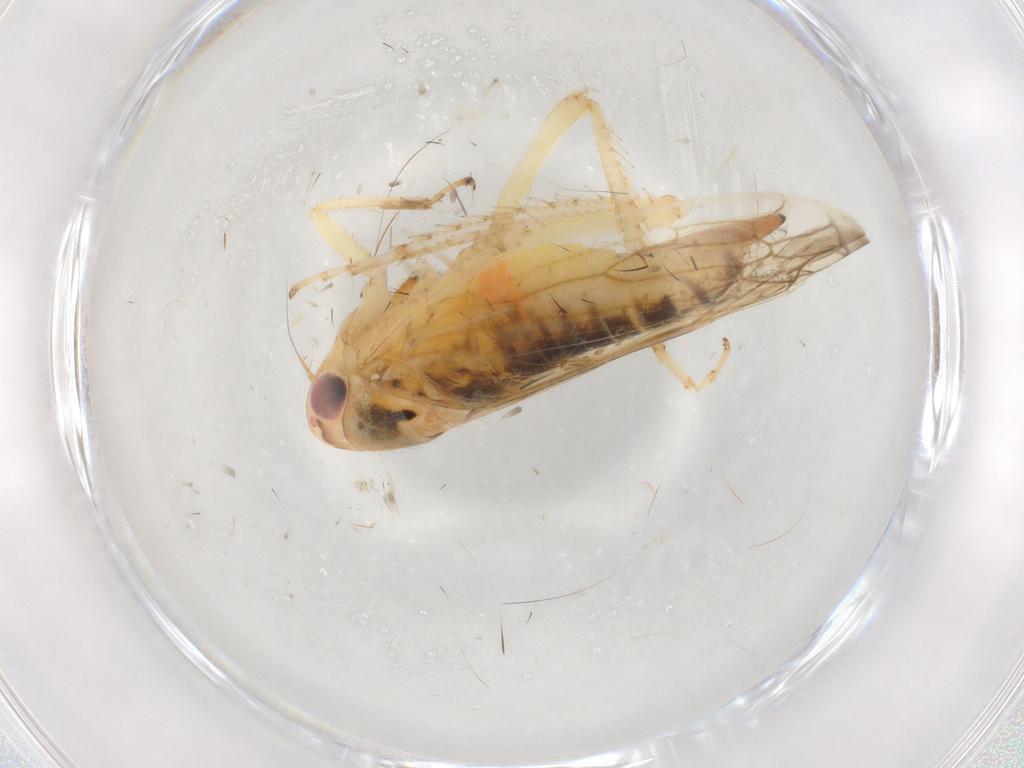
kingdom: Animalia
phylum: Arthropoda
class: Insecta
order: Hemiptera
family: Cicadellidae
